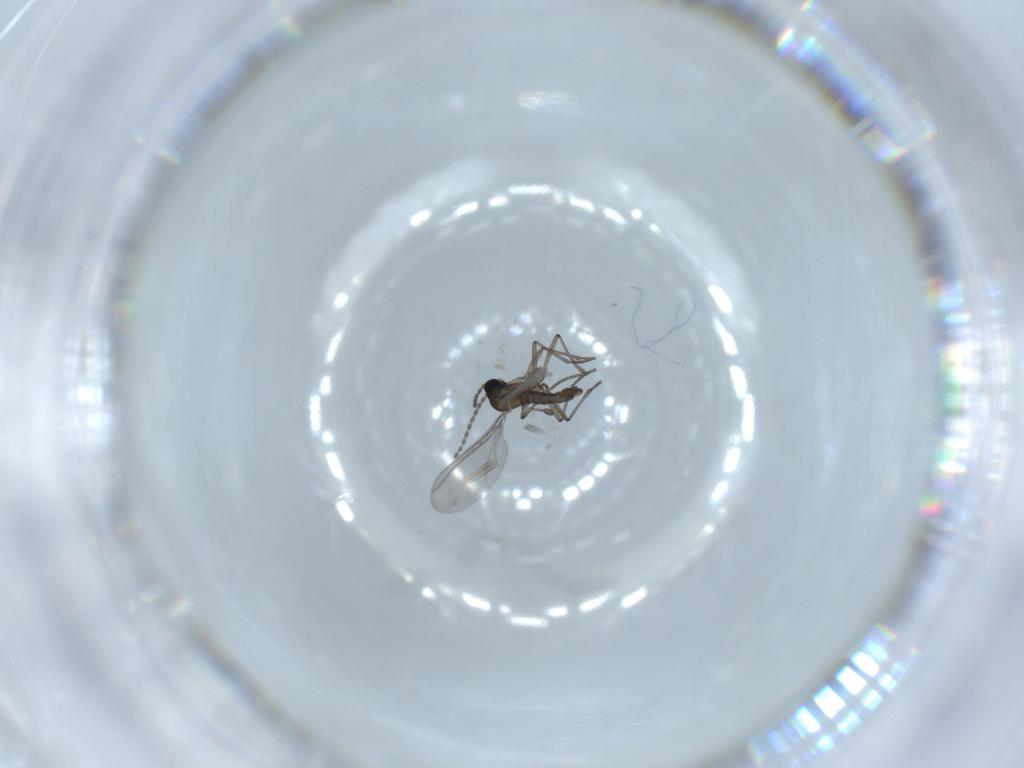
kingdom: Animalia
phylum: Arthropoda
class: Insecta
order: Diptera
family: Sciaridae
